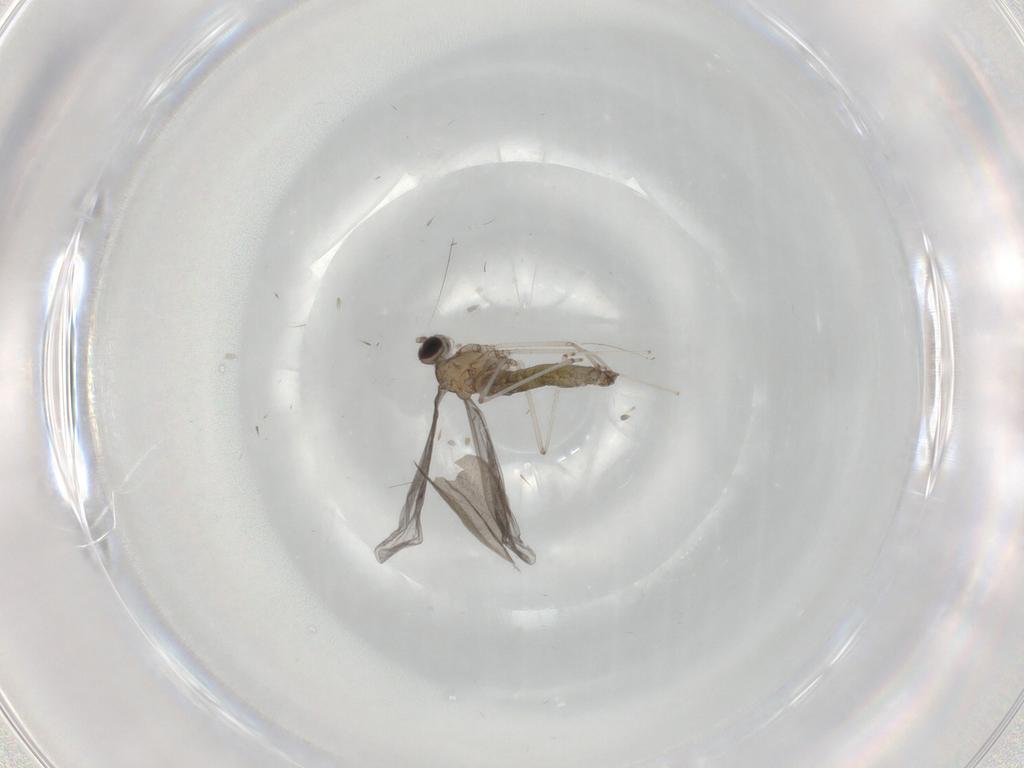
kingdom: Animalia
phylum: Arthropoda
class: Insecta
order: Diptera
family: Cecidomyiidae
